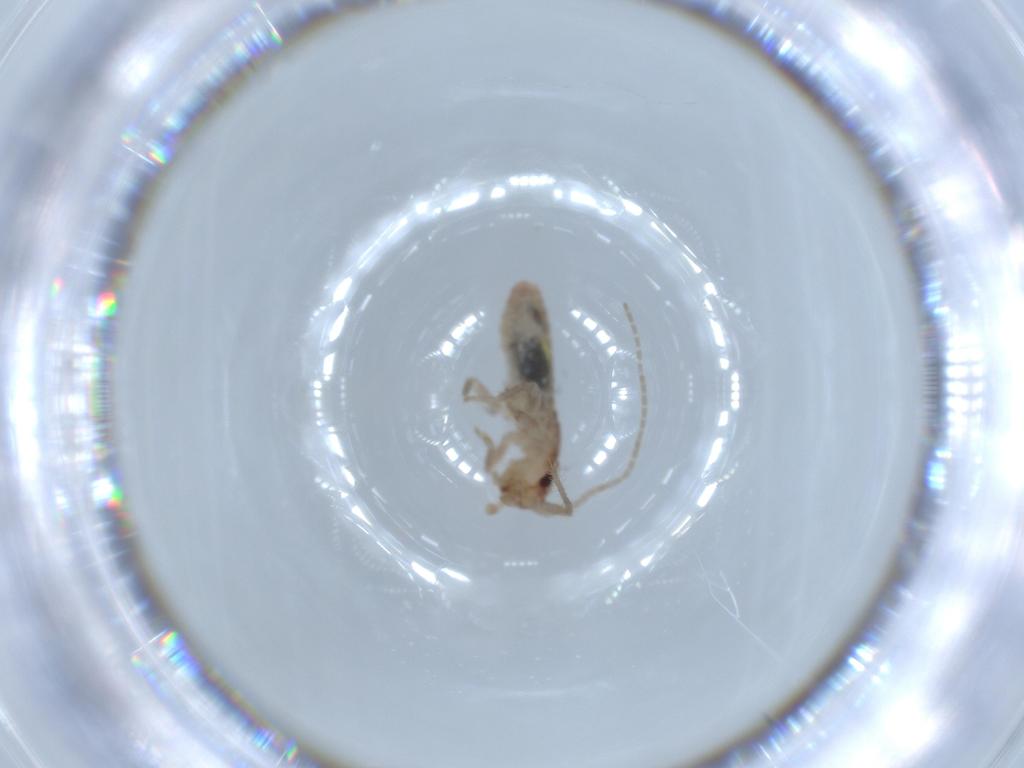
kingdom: Animalia
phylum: Arthropoda
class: Insecta
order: Orthoptera
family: Mogoplistidae
